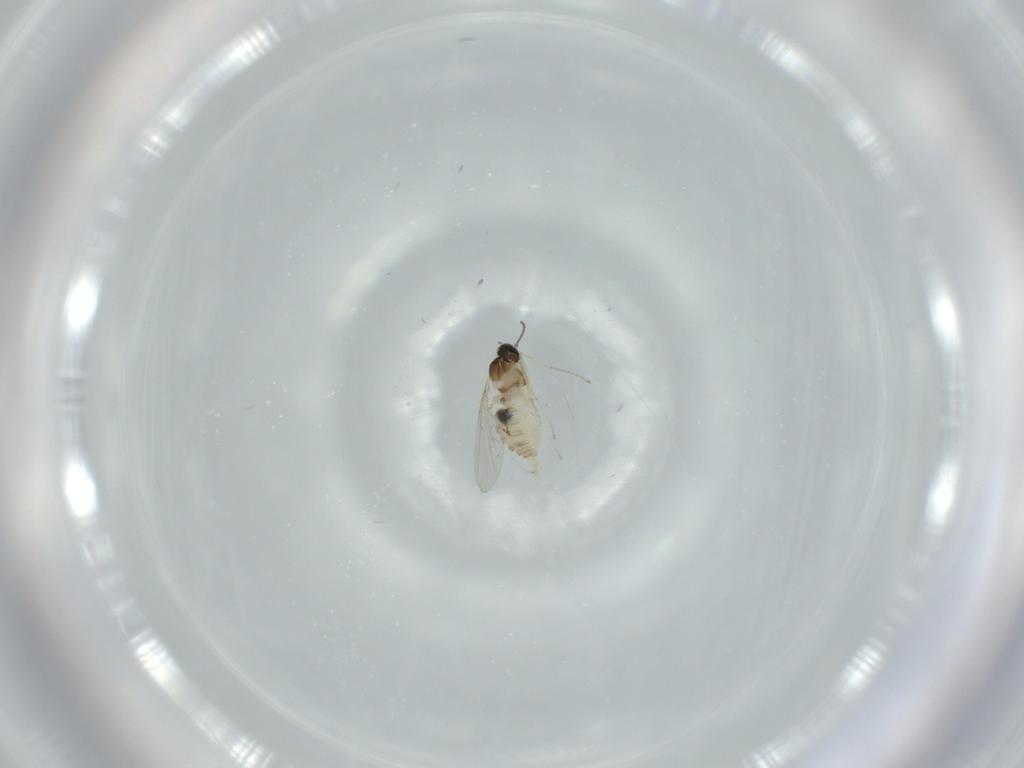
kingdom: Animalia
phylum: Arthropoda
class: Insecta
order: Diptera
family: Cecidomyiidae
